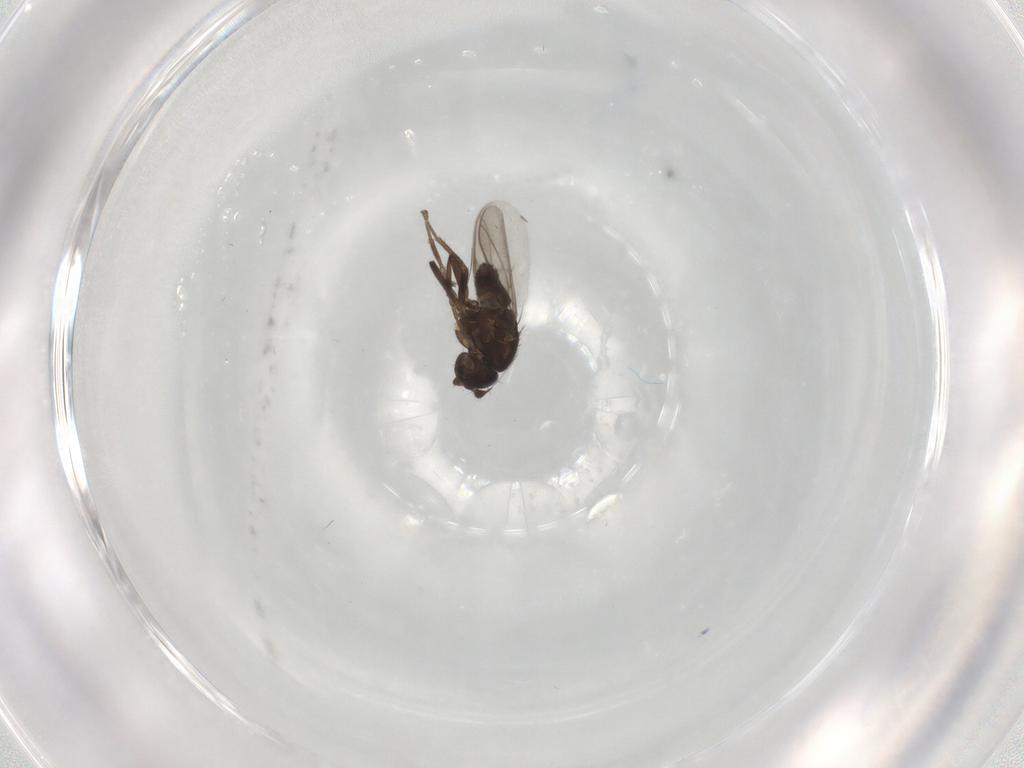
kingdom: Animalia
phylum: Arthropoda
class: Insecta
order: Diptera
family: Sphaeroceridae
